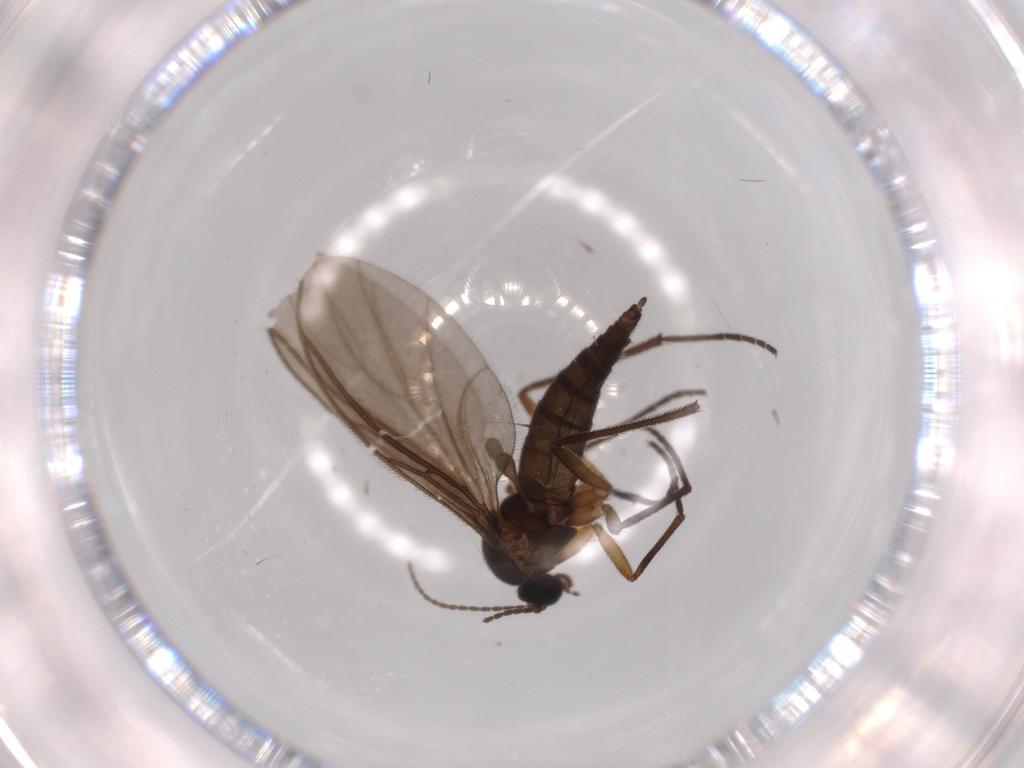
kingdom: Animalia
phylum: Arthropoda
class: Insecta
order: Diptera
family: Sciaridae
